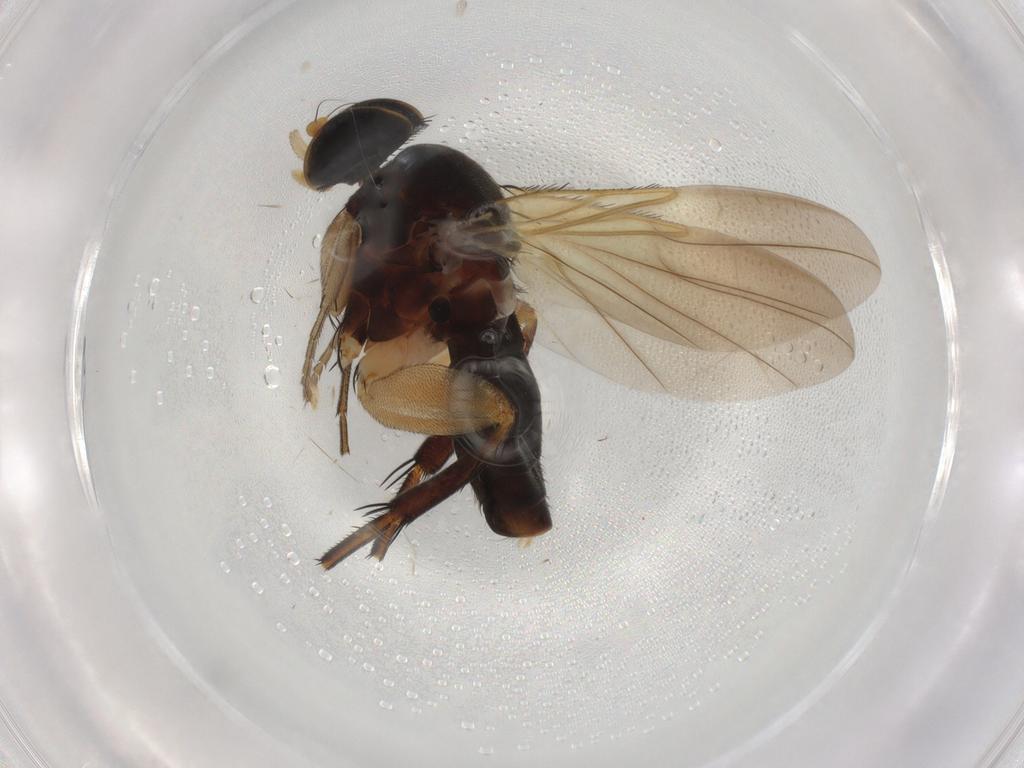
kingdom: Animalia
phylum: Arthropoda
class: Insecta
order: Diptera
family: Phoridae
